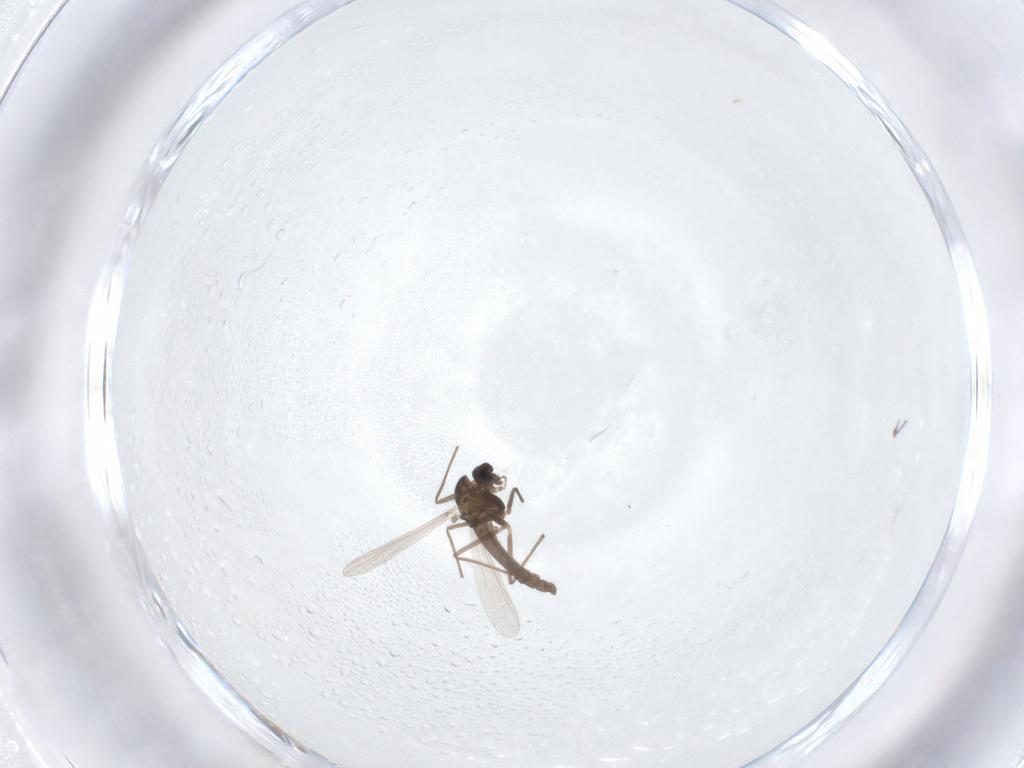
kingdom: Animalia
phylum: Arthropoda
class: Insecta
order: Diptera
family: Chironomidae
